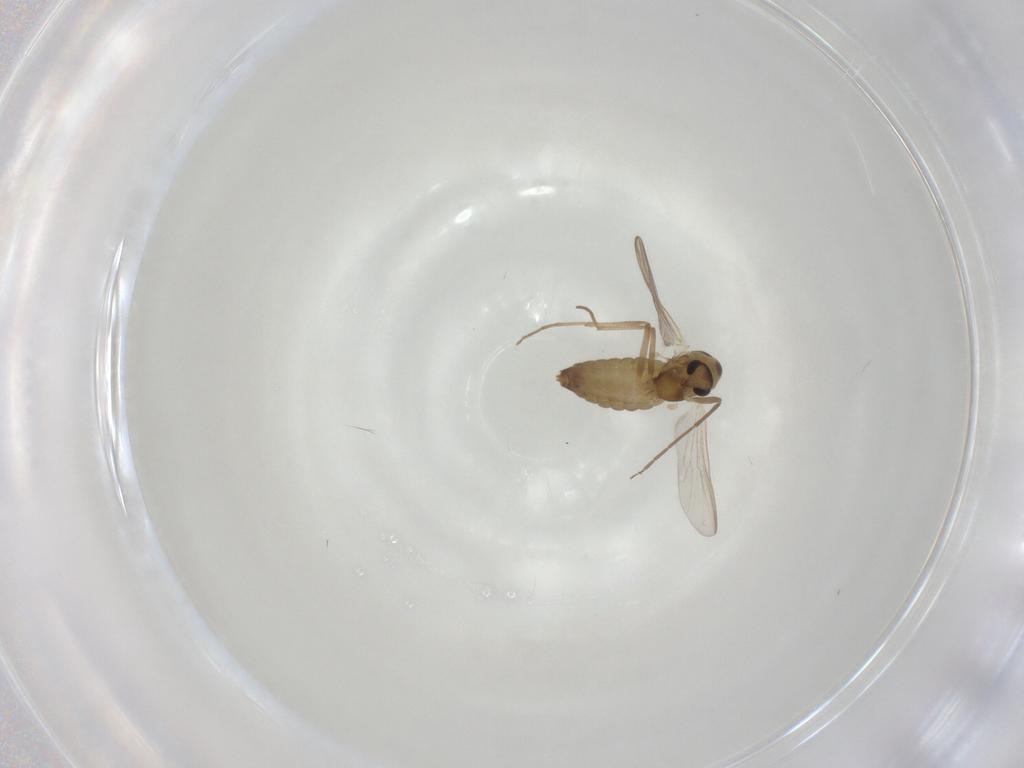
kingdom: Animalia
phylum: Arthropoda
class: Insecta
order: Diptera
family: Chironomidae
